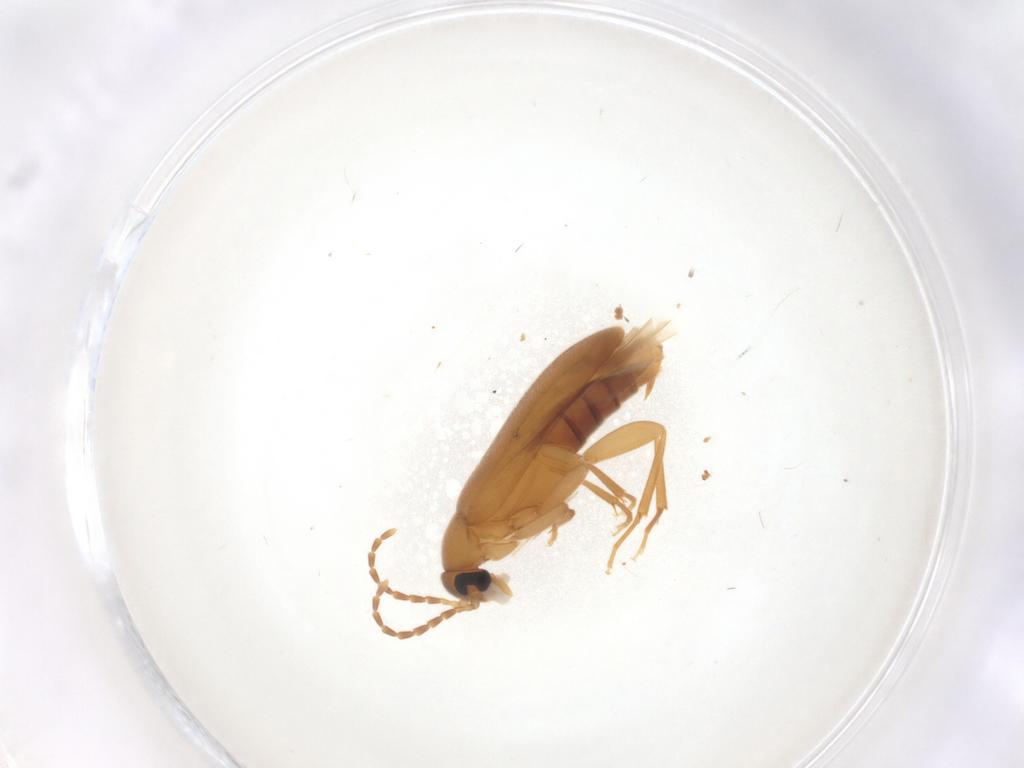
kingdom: Animalia
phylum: Arthropoda
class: Insecta
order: Coleoptera
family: Scraptiidae
